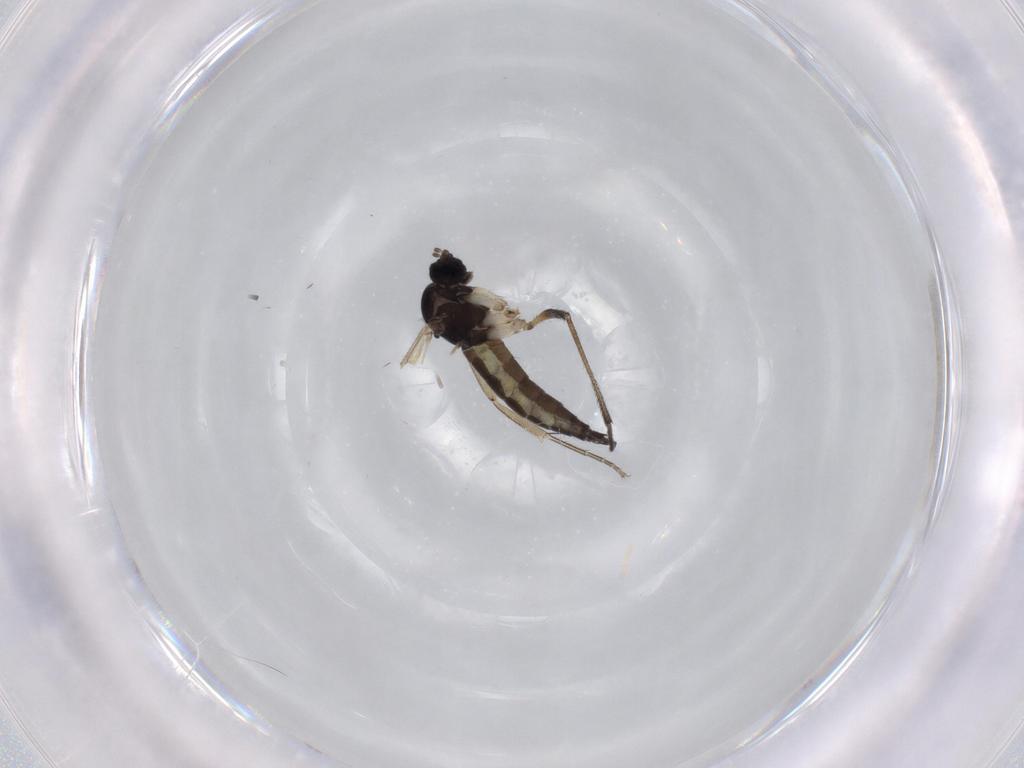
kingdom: Animalia
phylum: Arthropoda
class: Insecta
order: Diptera
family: Sciaridae
